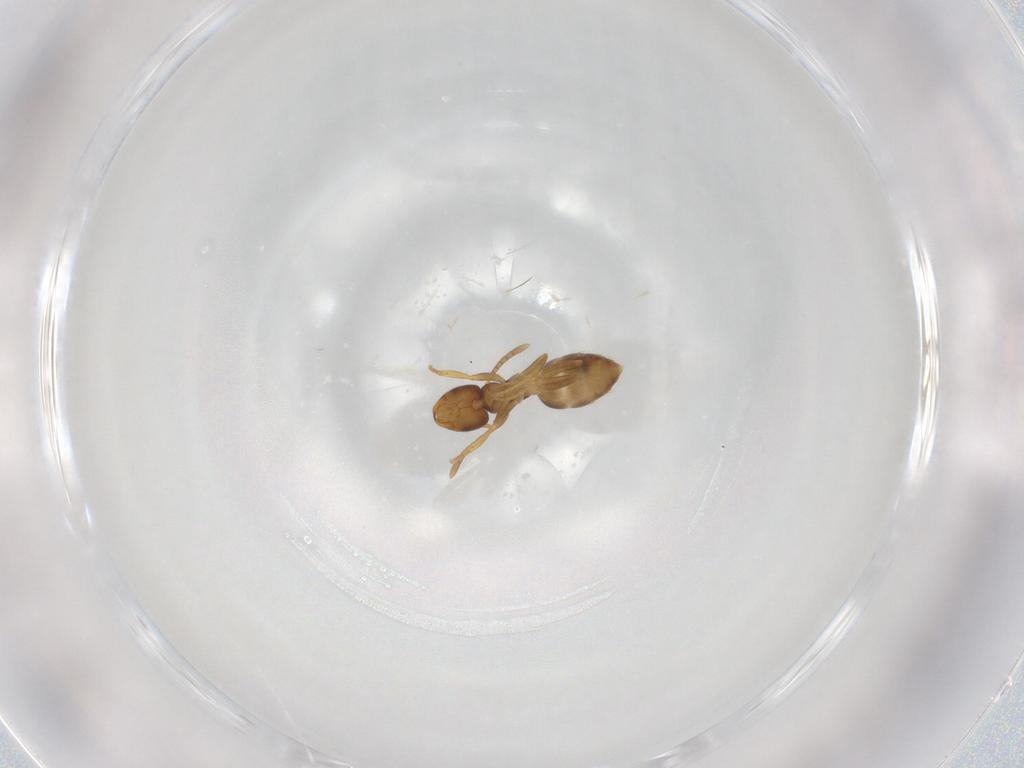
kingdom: Animalia
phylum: Arthropoda
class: Insecta
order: Hymenoptera
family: Formicidae
